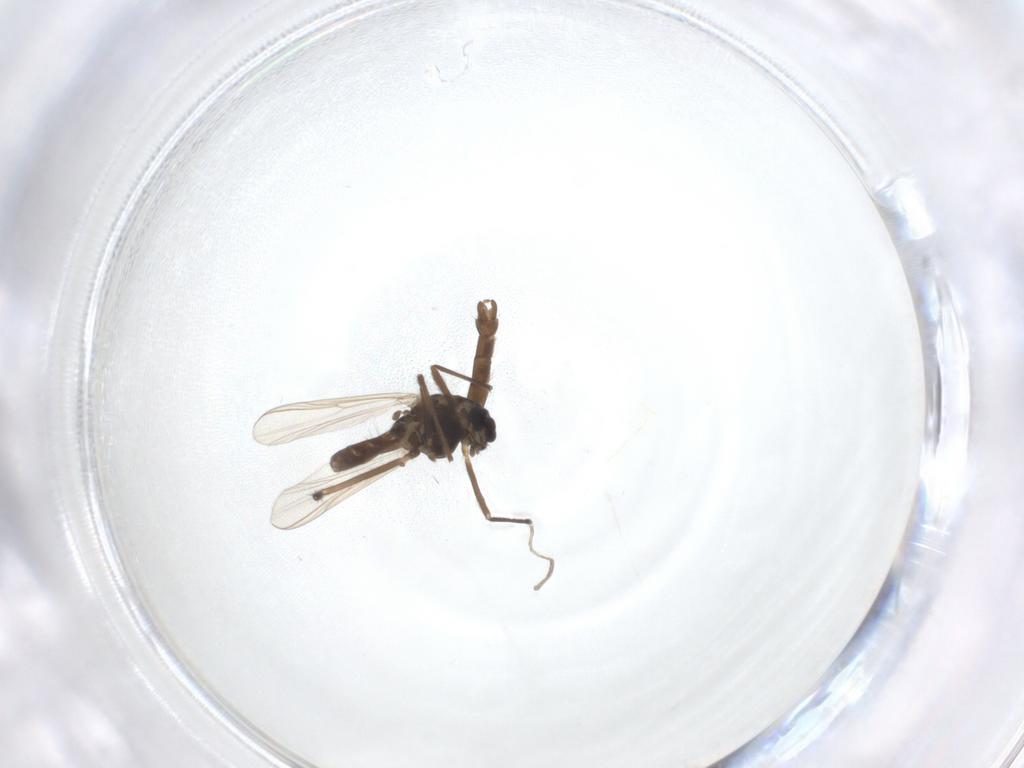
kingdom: Animalia
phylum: Arthropoda
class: Insecta
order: Diptera
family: Chironomidae
